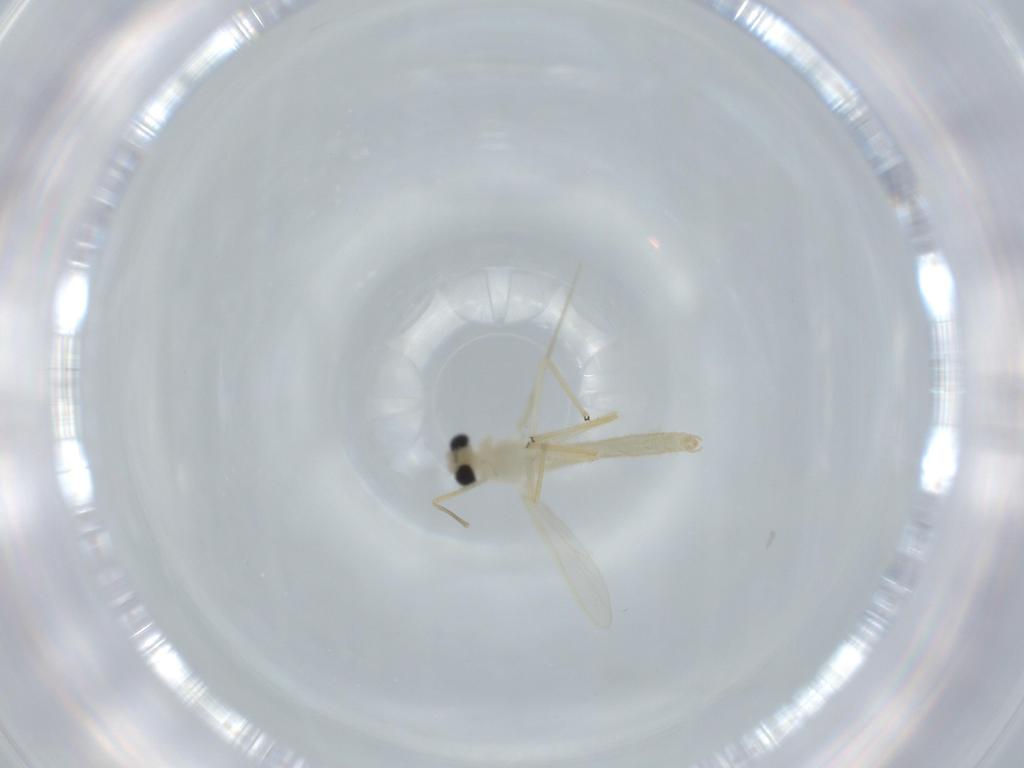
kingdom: Animalia
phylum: Arthropoda
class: Insecta
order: Diptera
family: Chironomidae
